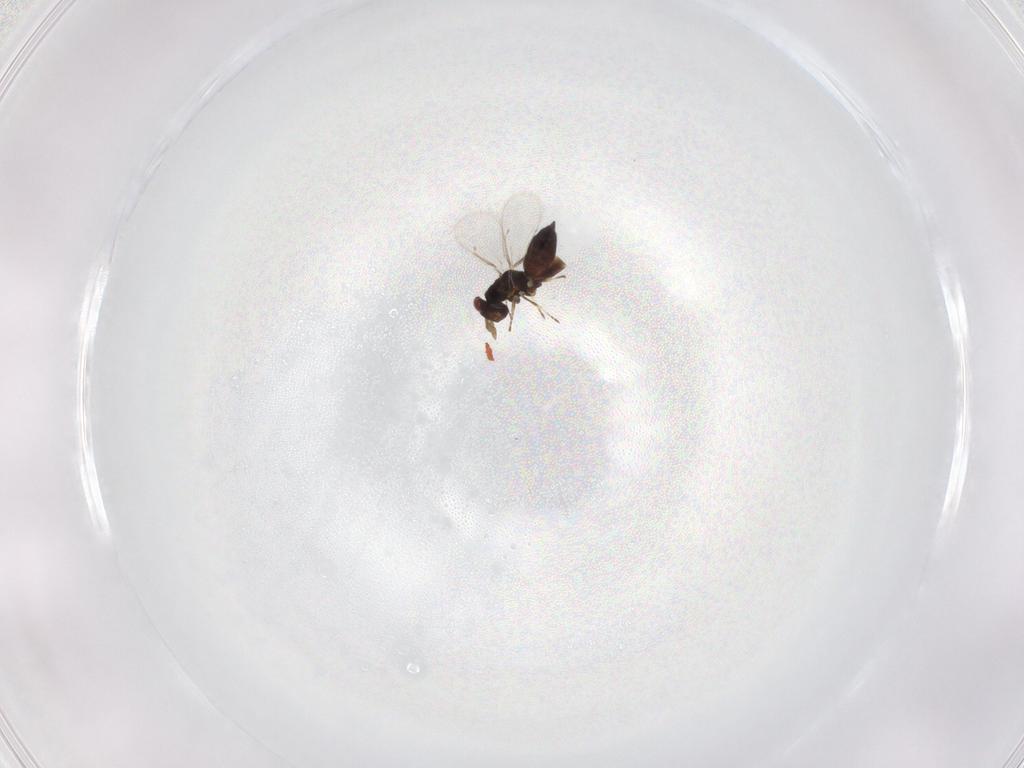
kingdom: Animalia
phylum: Arthropoda
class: Insecta
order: Hymenoptera
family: Eulophidae
